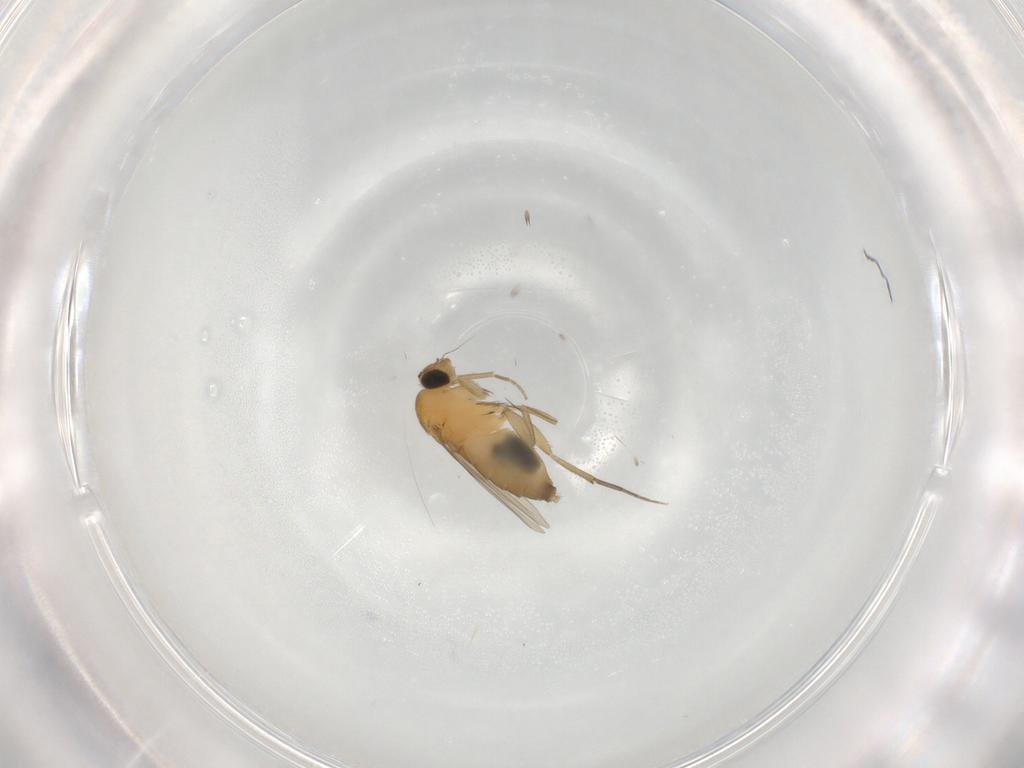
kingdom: Animalia
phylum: Arthropoda
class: Insecta
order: Diptera
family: Phoridae
